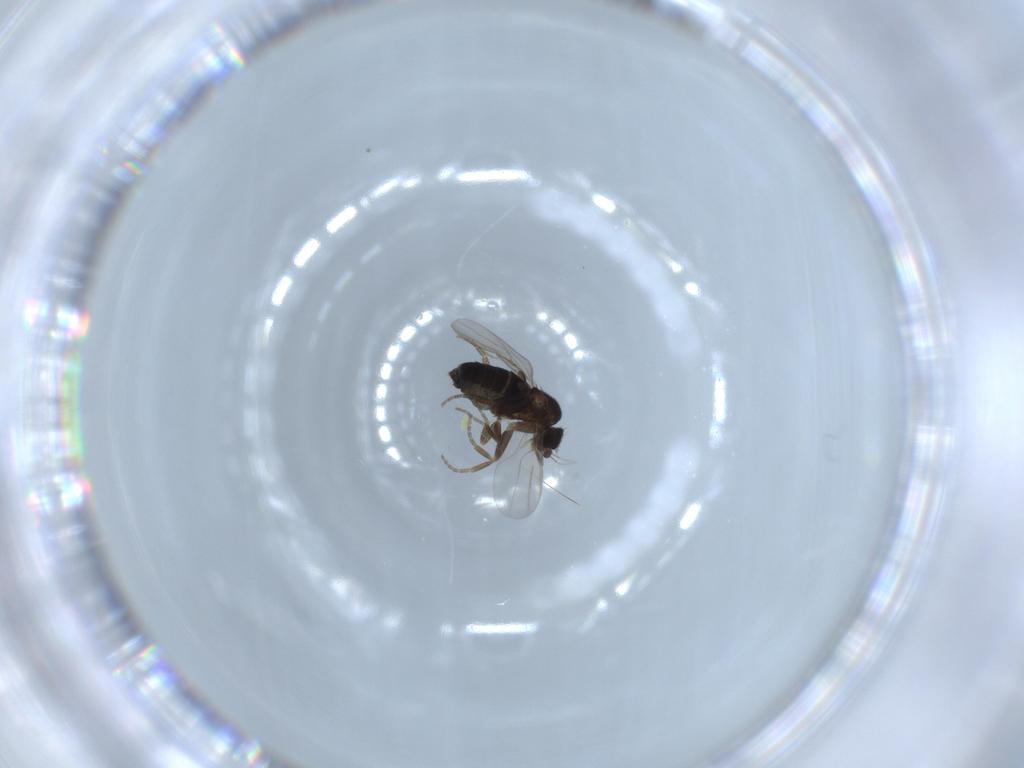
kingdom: Animalia
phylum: Arthropoda
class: Insecta
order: Diptera
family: Phoridae
